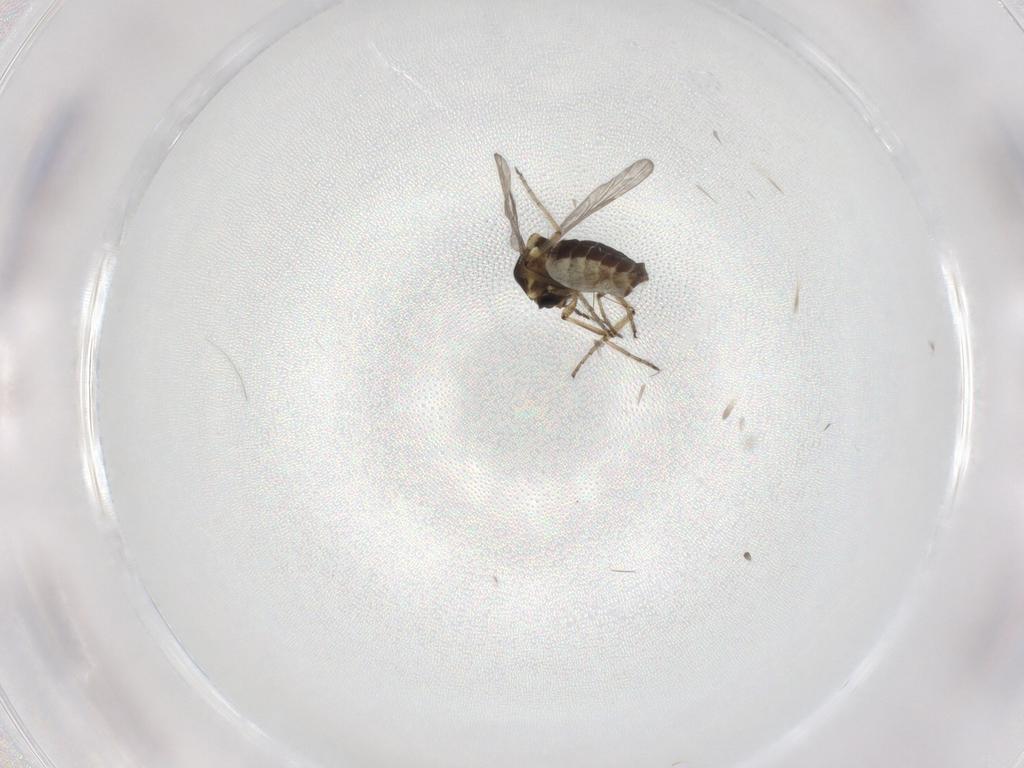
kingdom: Animalia
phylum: Arthropoda
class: Insecta
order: Diptera
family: Ceratopogonidae
